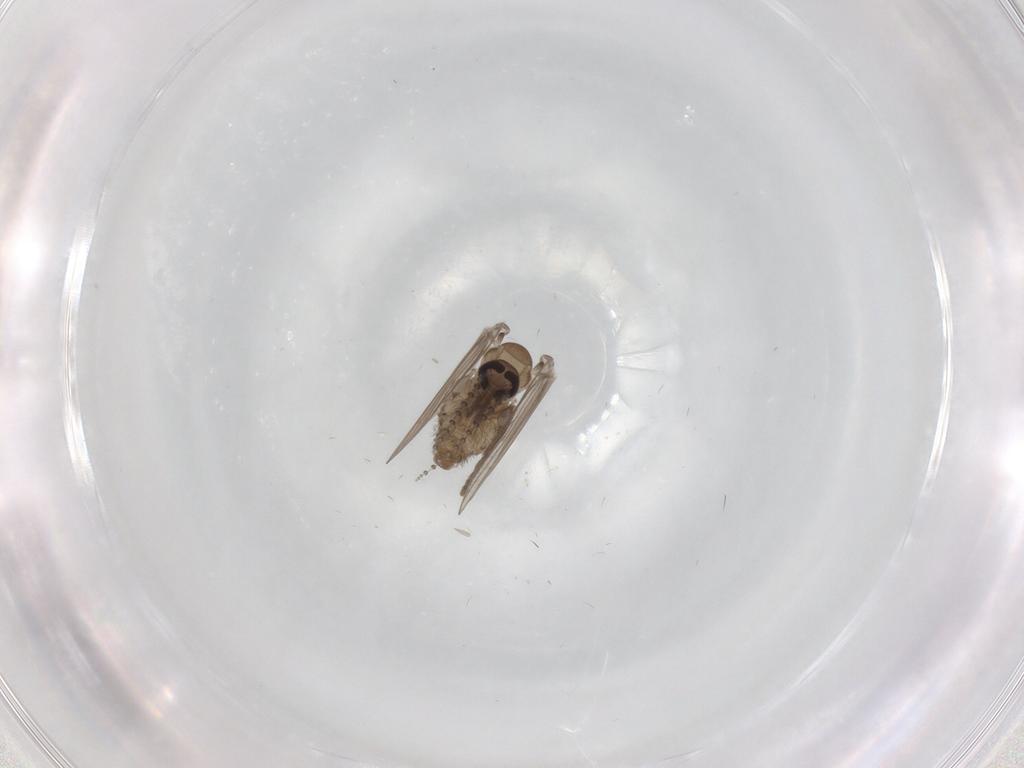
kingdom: Animalia
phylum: Arthropoda
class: Insecta
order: Diptera
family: Psychodidae
